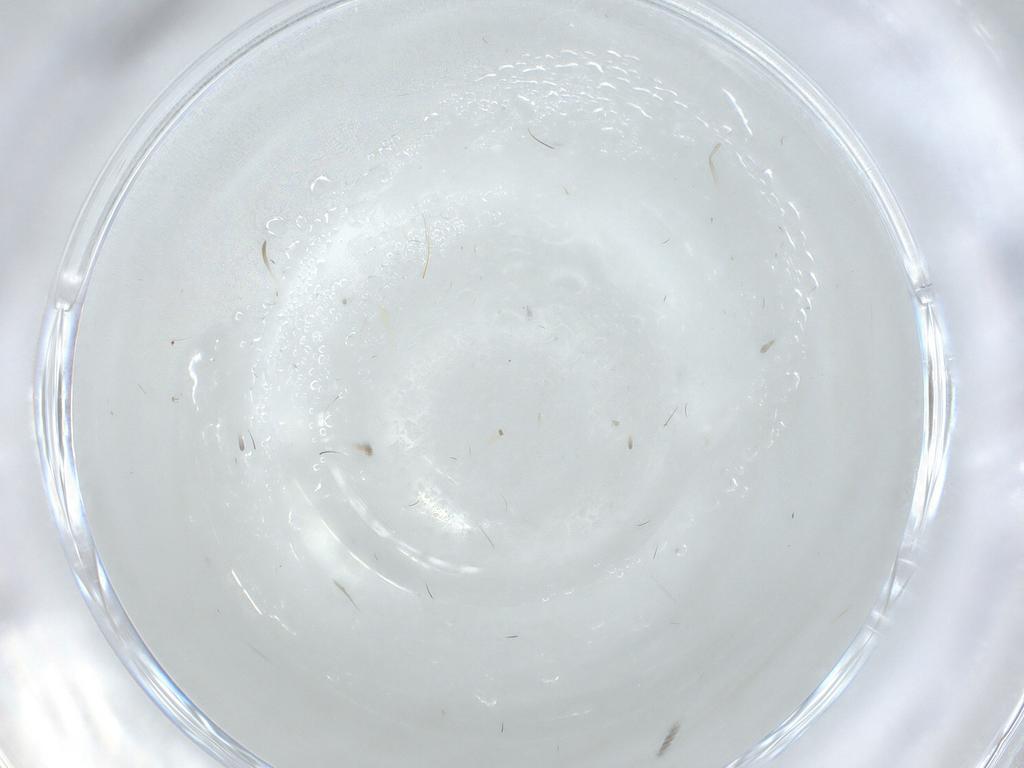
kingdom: Animalia
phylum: Arthropoda
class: Insecta
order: Diptera
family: Cecidomyiidae
